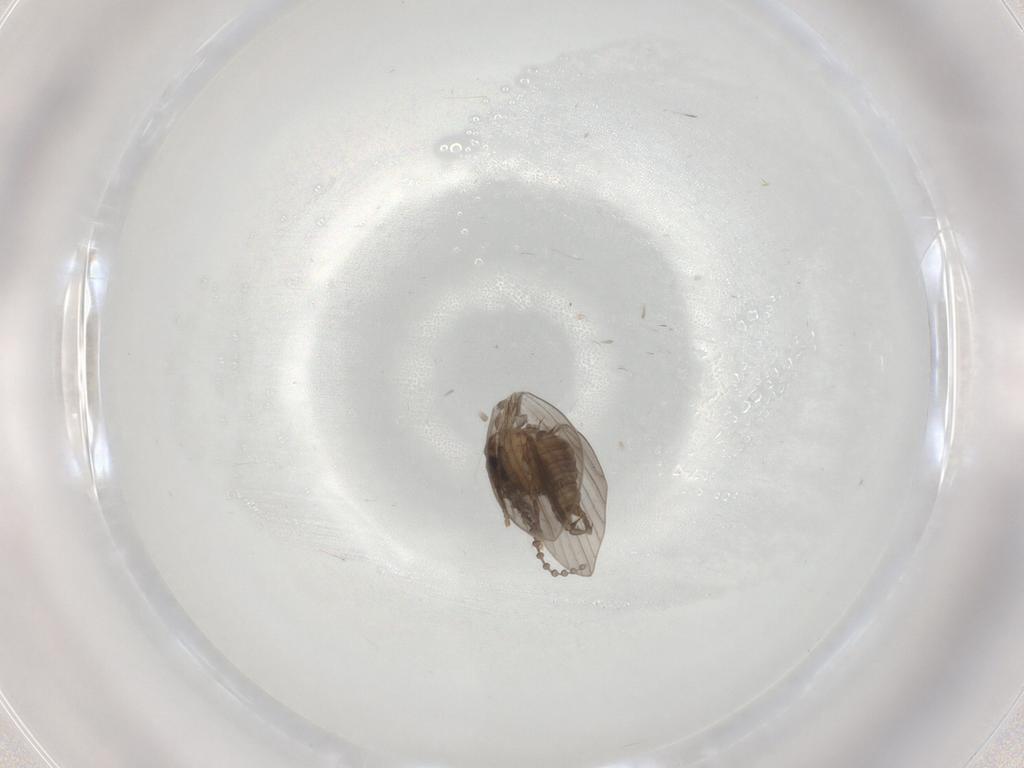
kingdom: Animalia
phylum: Arthropoda
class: Insecta
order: Diptera
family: Psychodidae
